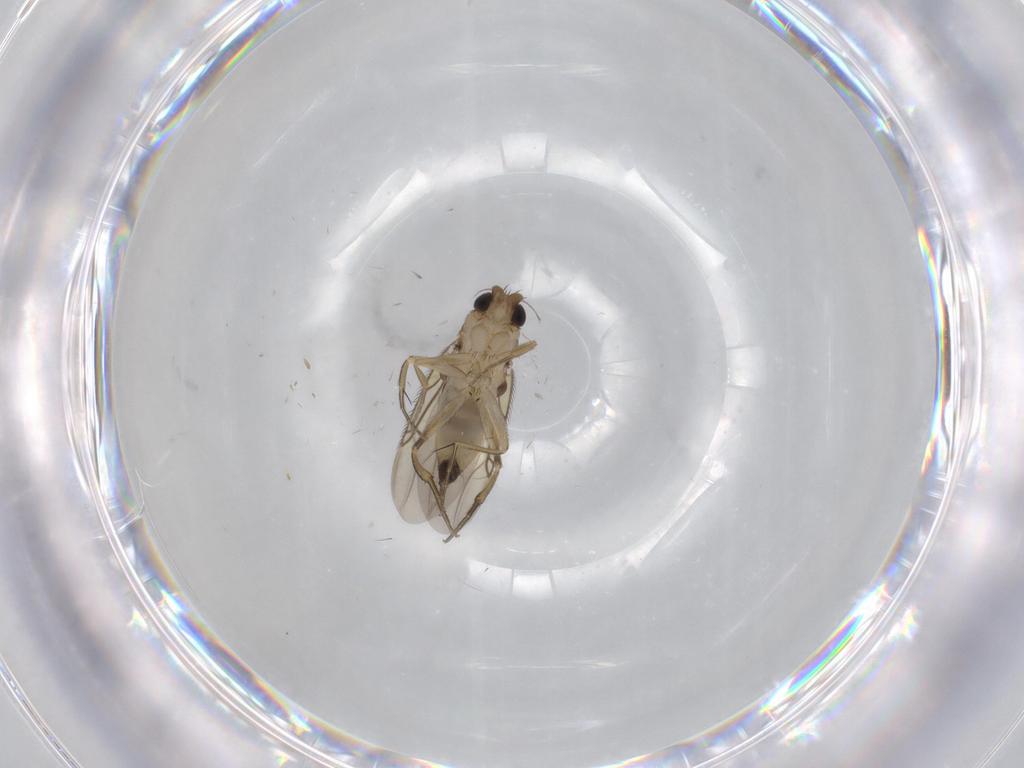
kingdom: Animalia
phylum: Arthropoda
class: Insecta
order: Diptera
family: Phoridae
